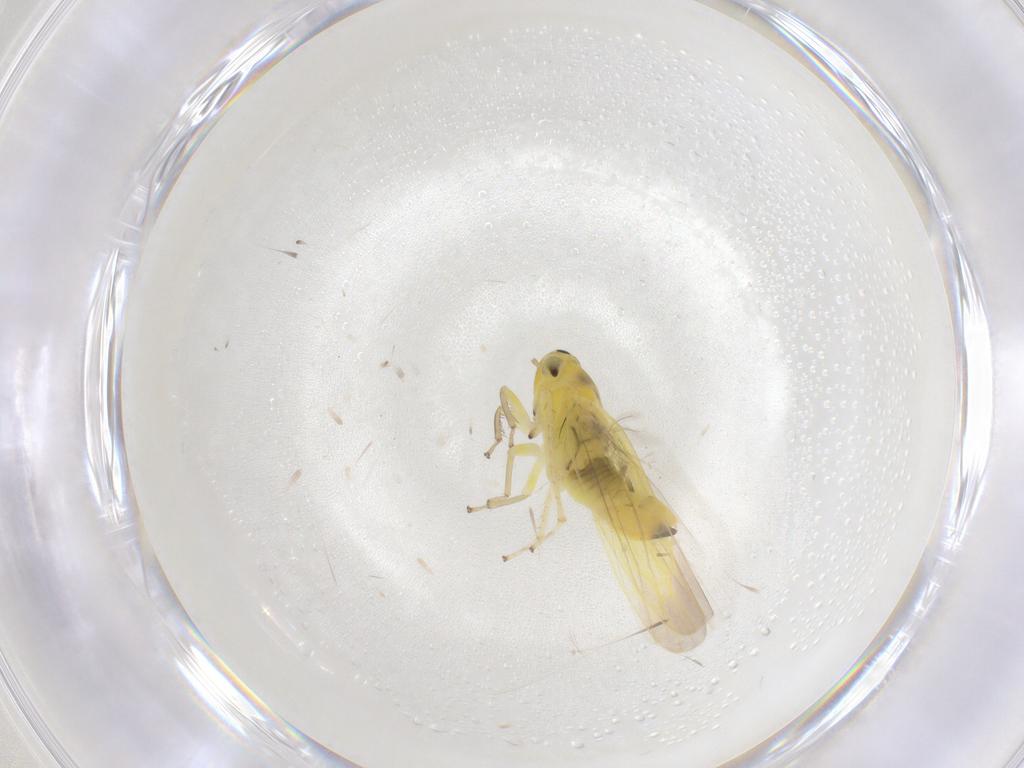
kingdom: Animalia
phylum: Arthropoda
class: Insecta
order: Hemiptera
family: Cicadellidae
